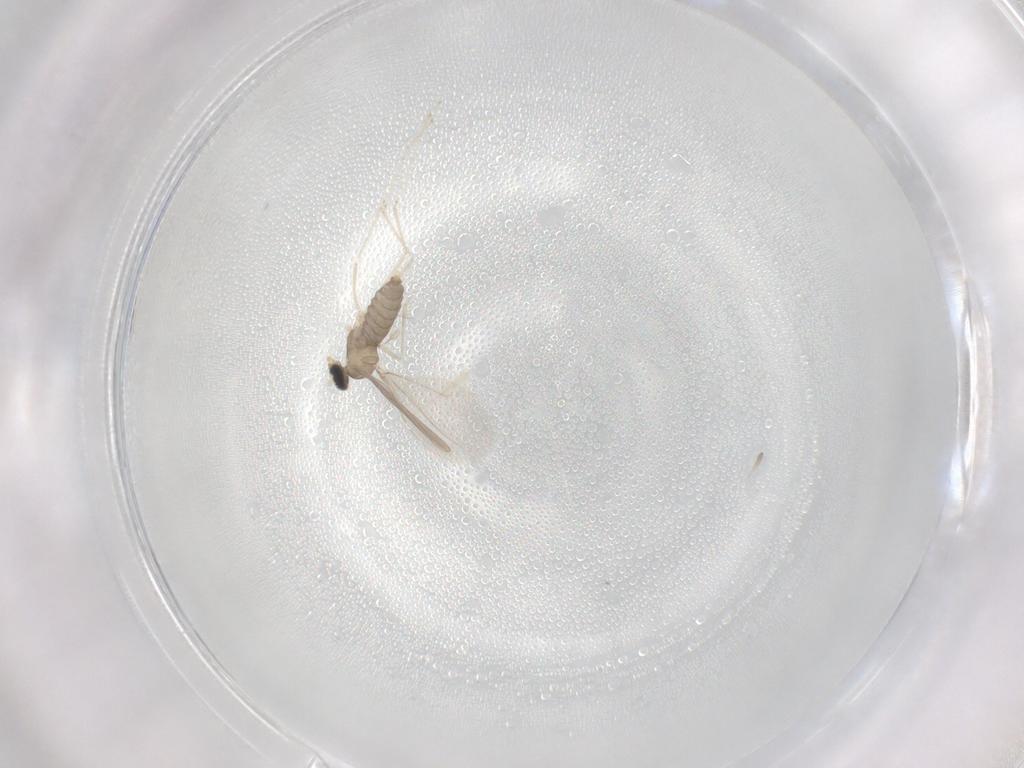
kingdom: Animalia
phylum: Arthropoda
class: Insecta
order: Diptera
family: Cecidomyiidae
